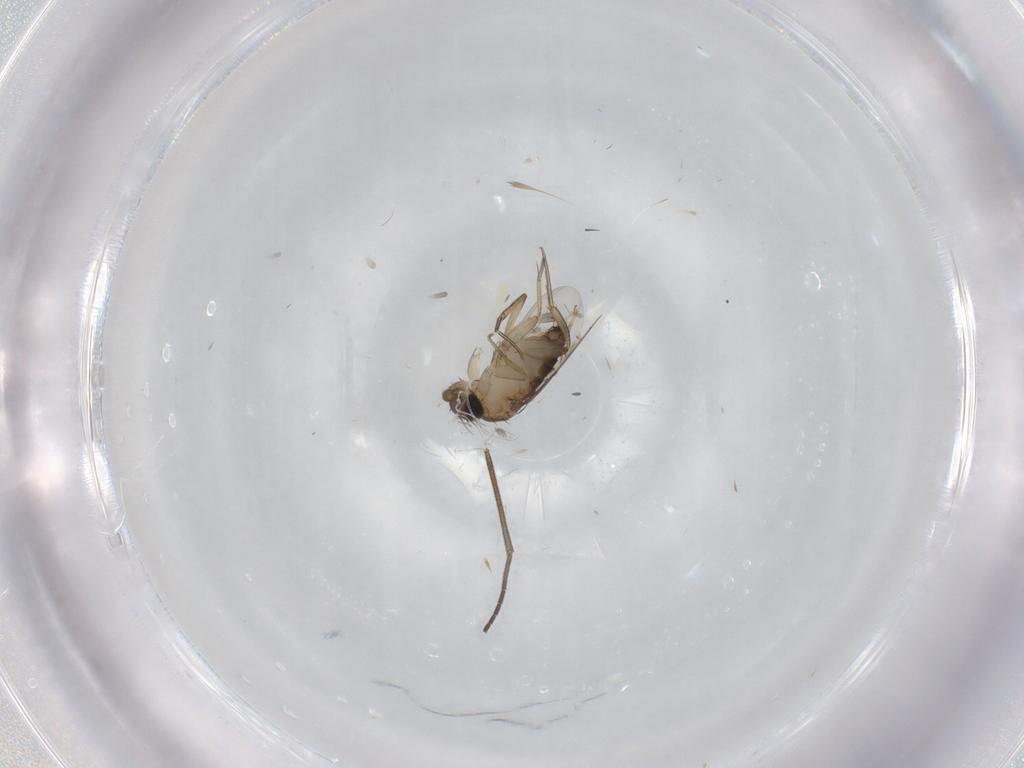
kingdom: Animalia
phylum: Arthropoda
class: Insecta
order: Diptera
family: Phoridae
